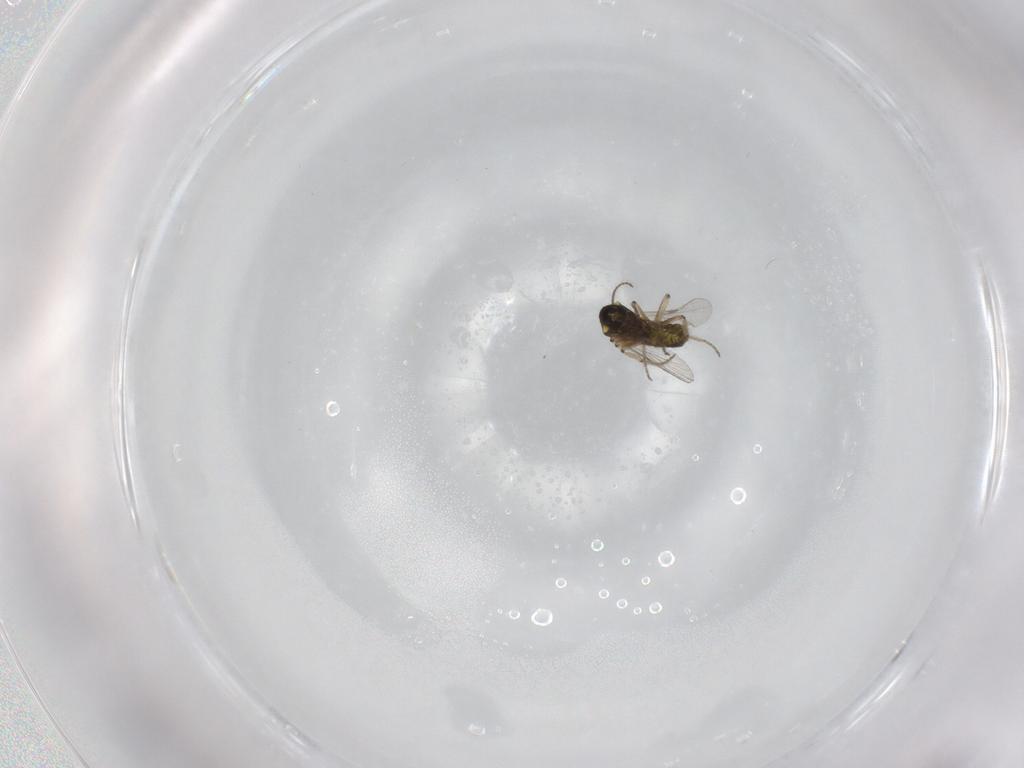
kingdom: Animalia
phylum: Arthropoda
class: Insecta
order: Diptera
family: Ceratopogonidae
